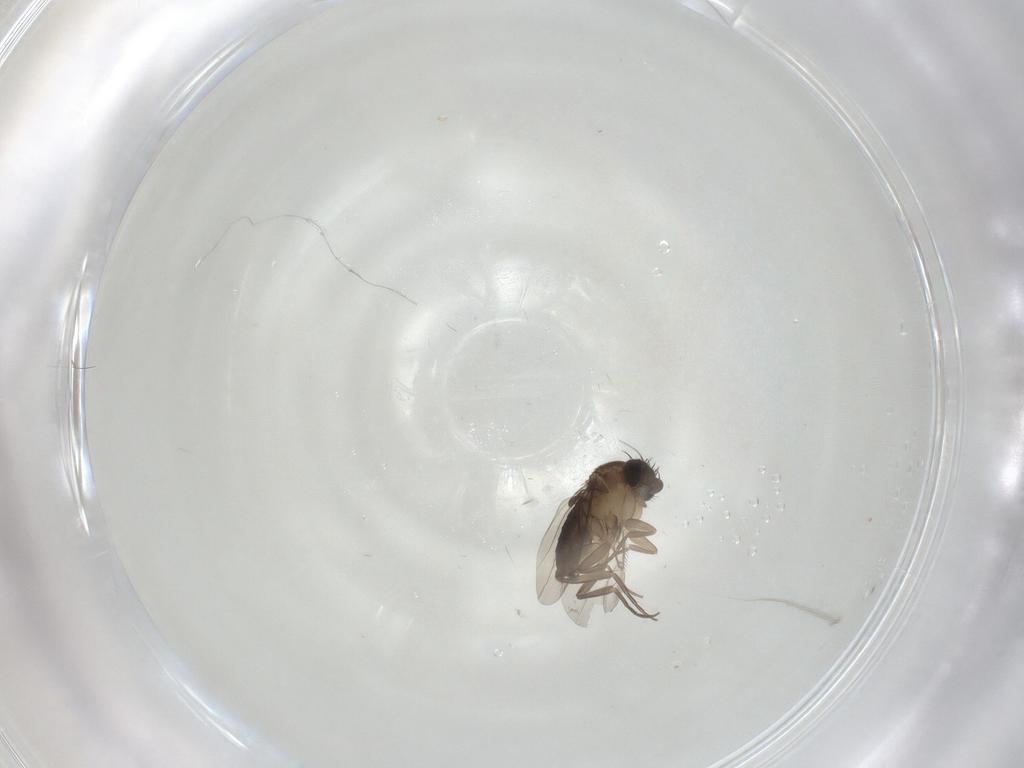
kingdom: Animalia
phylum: Arthropoda
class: Insecta
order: Diptera
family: Phoridae
